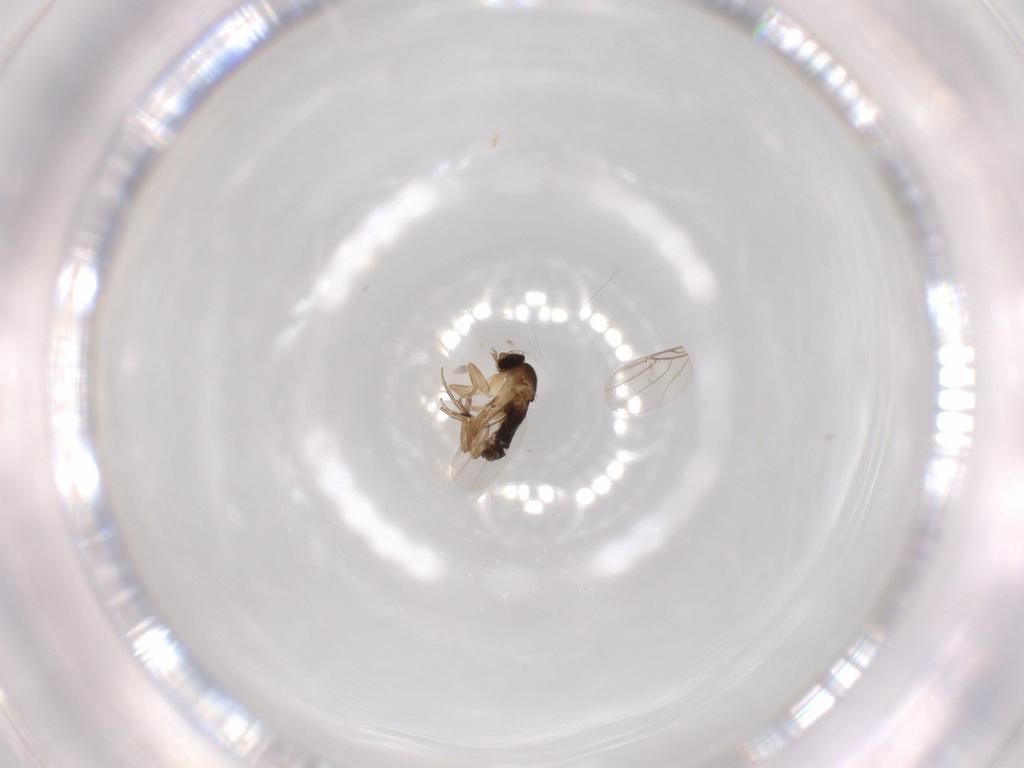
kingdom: Animalia
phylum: Arthropoda
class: Insecta
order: Diptera
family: Phoridae
